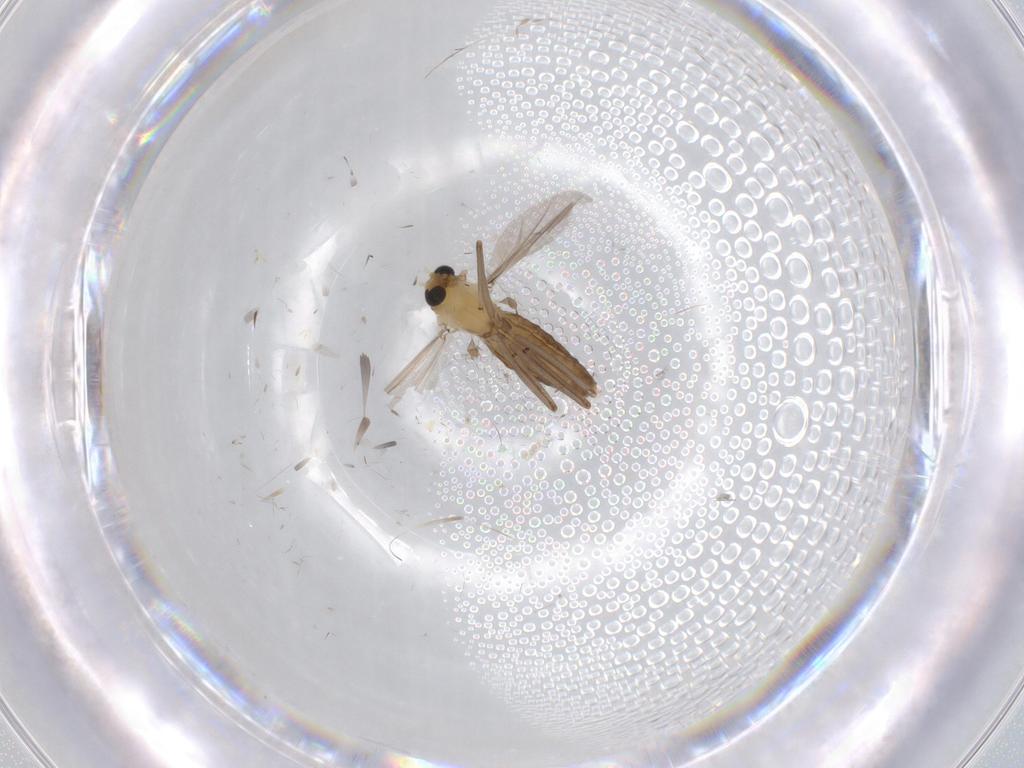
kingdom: Animalia
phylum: Arthropoda
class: Insecta
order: Diptera
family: Chironomidae
